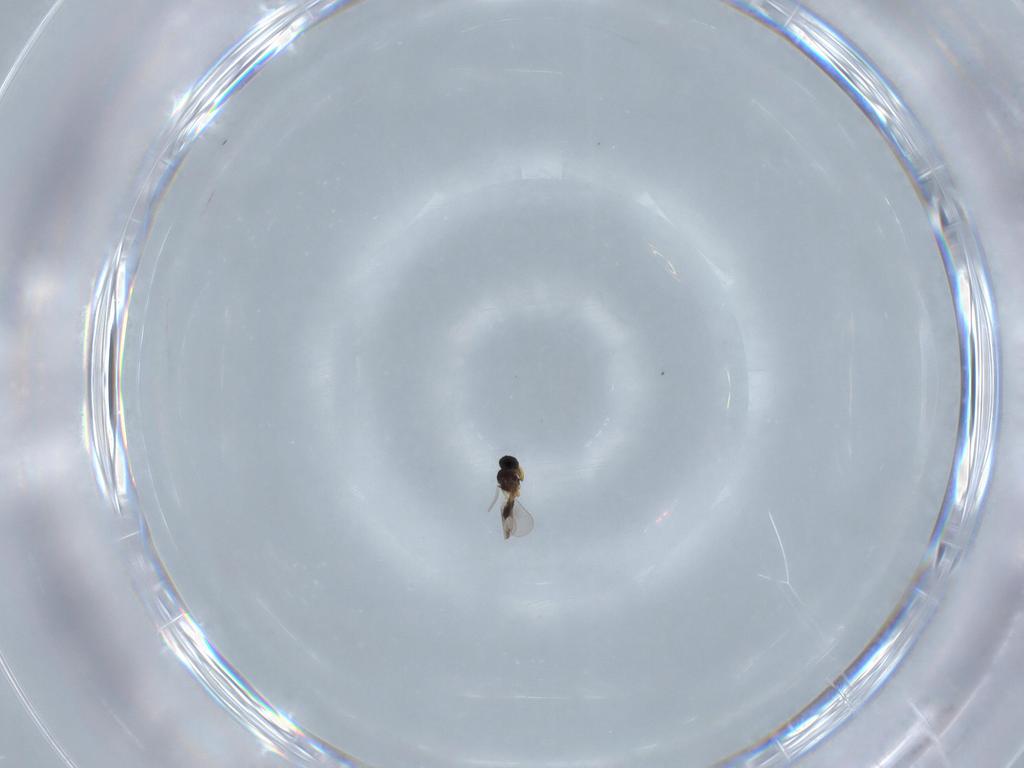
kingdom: Animalia
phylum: Arthropoda
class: Insecta
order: Hymenoptera
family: Platygastridae
